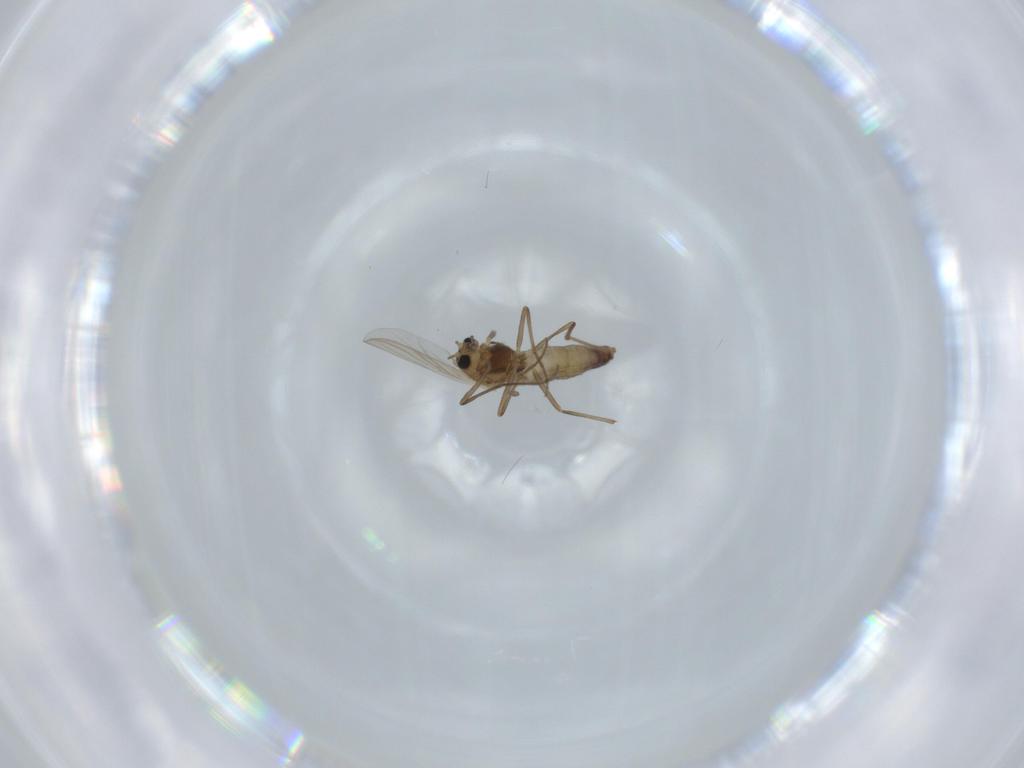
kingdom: Animalia
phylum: Arthropoda
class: Insecta
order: Diptera
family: Chironomidae
